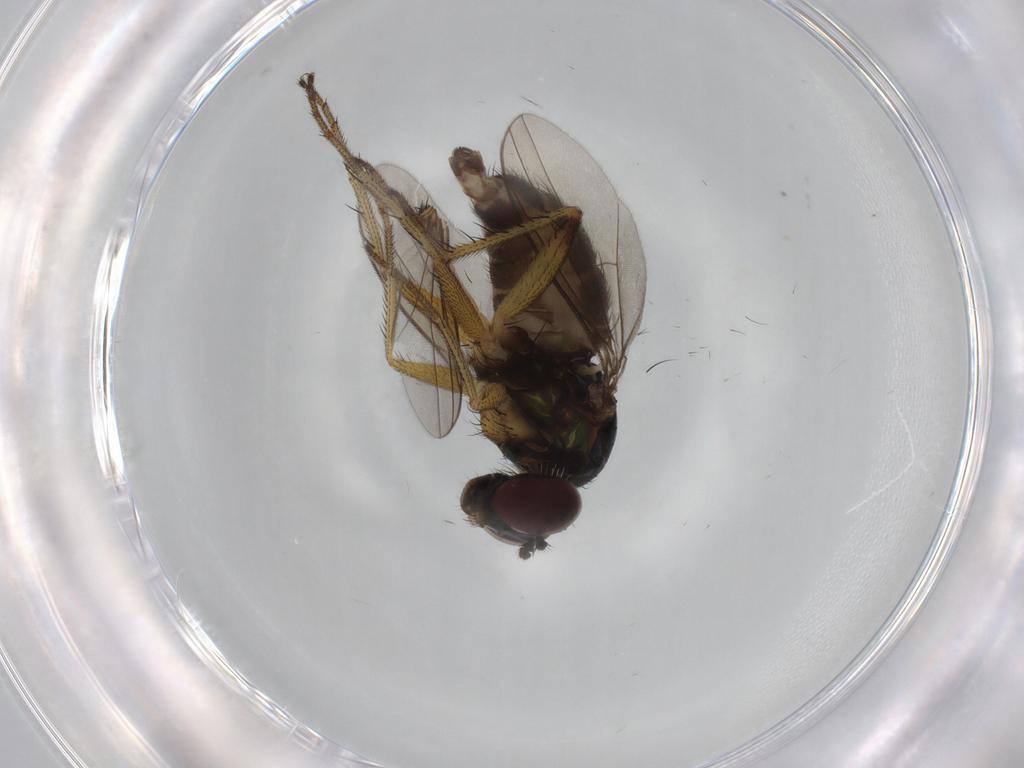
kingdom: Animalia
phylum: Arthropoda
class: Insecta
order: Diptera
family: Dolichopodidae
